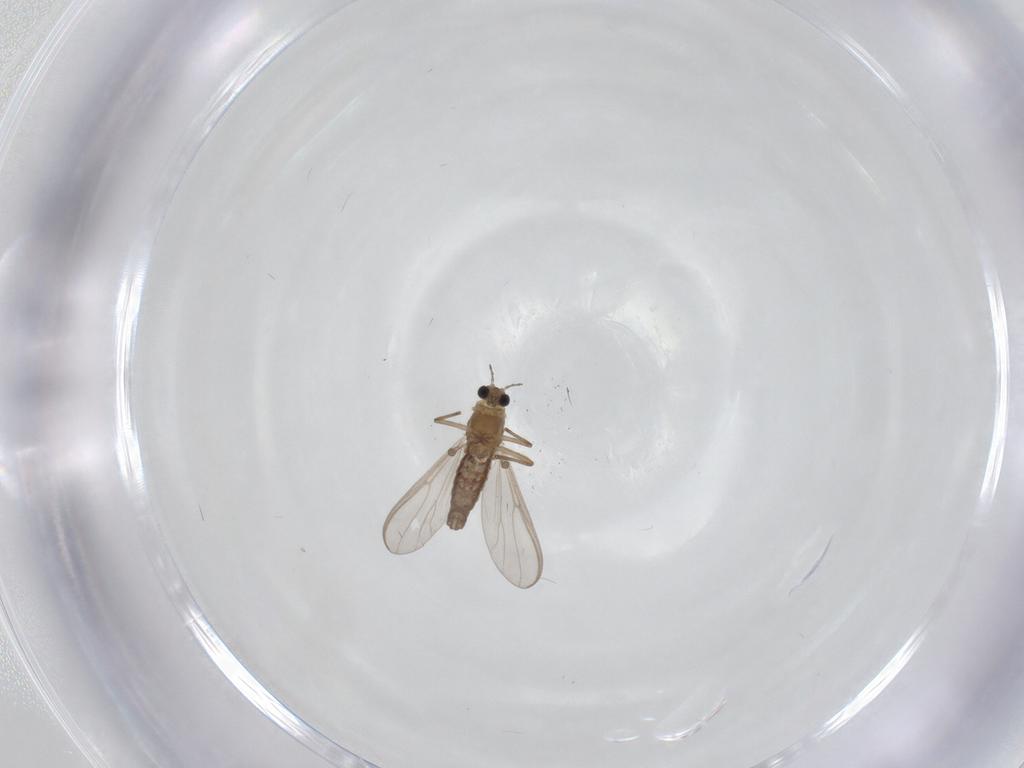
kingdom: Animalia
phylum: Arthropoda
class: Insecta
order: Diptera
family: Chironomidae
